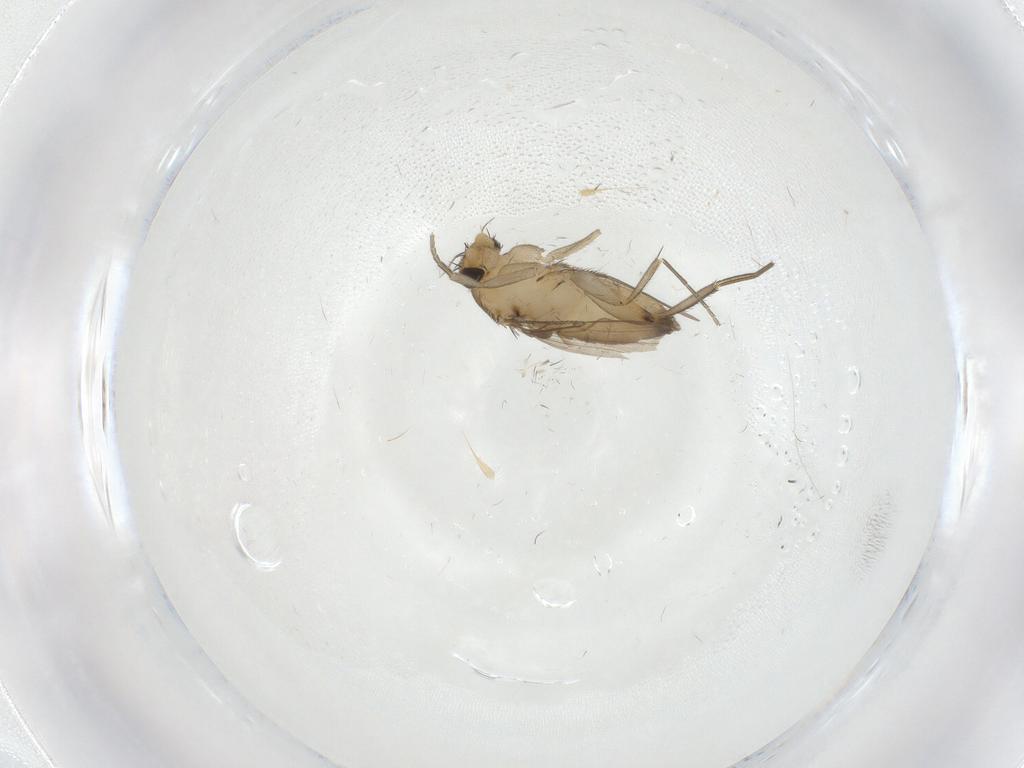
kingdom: Animalia
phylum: Arthropoda
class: Insecta
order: Diptera
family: Phoridae
